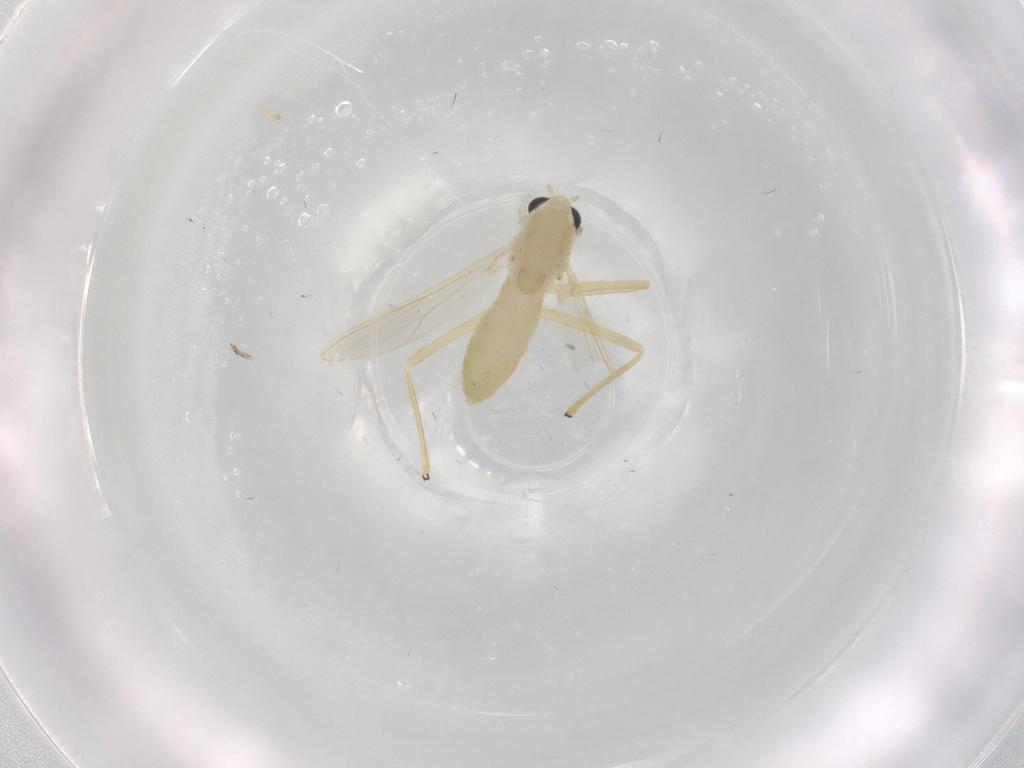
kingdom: Animalia
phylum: Arthropoda
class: Insecta
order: Diptera
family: Chironomidae
